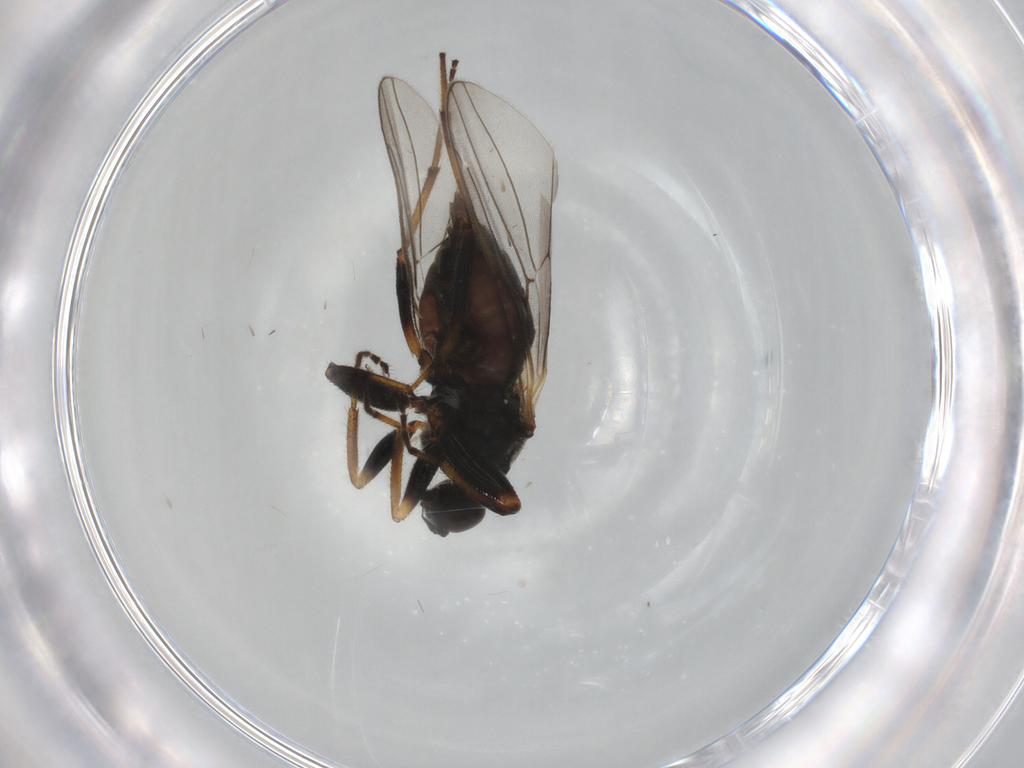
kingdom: Animalia
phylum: Arthropoda
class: Insecta
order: Diptera
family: Hybotidae
